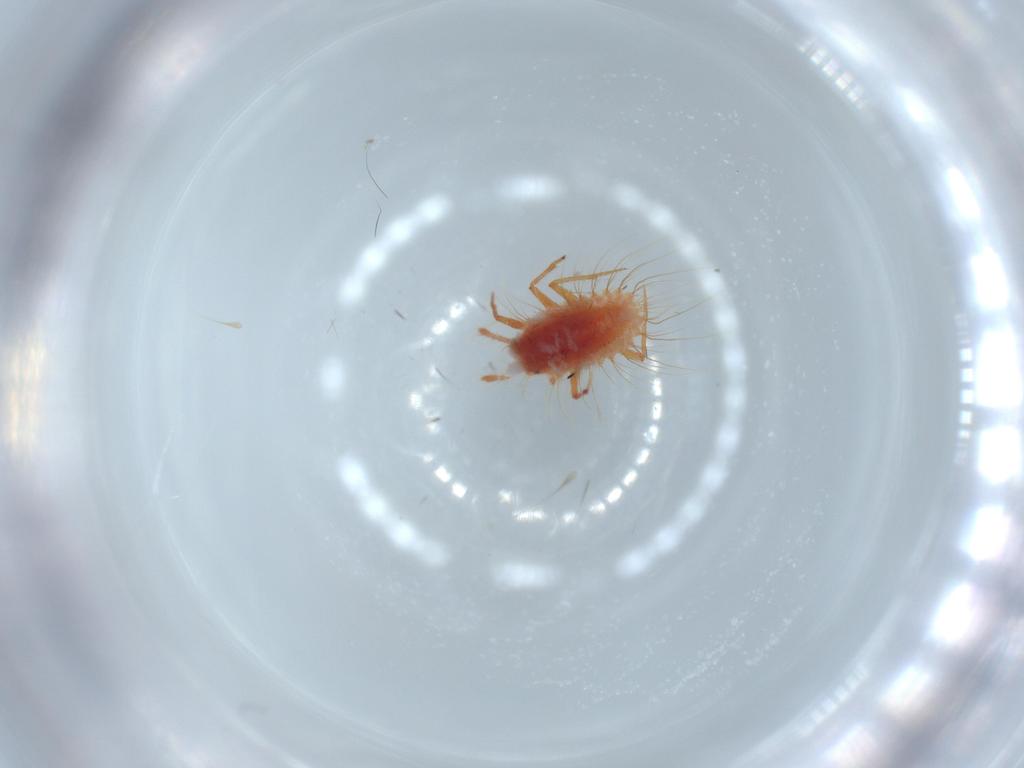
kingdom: Animalia
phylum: Arthropoda
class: Insecta
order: Hemiptera
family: Monophlebidae
